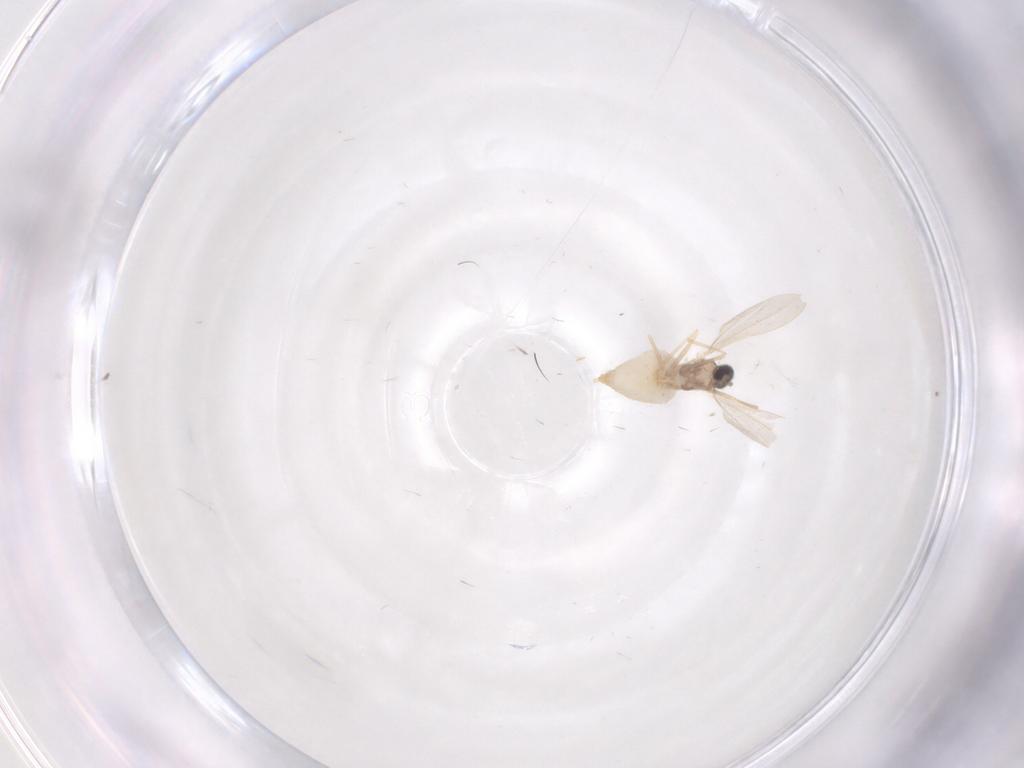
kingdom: Animalia
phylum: Arthropoda
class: Insecta
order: Diptera
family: Cecidomyiidae
